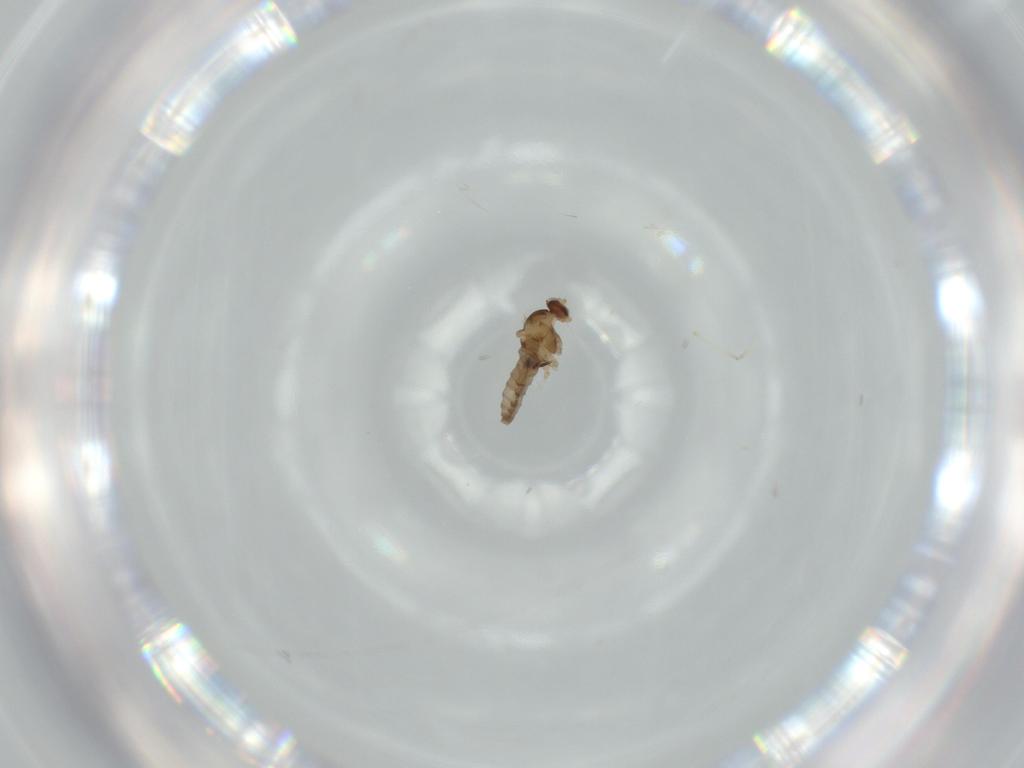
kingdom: Animalia
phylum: Arthropoda
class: Insecta
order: Diptera
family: Cecidomyiidae
